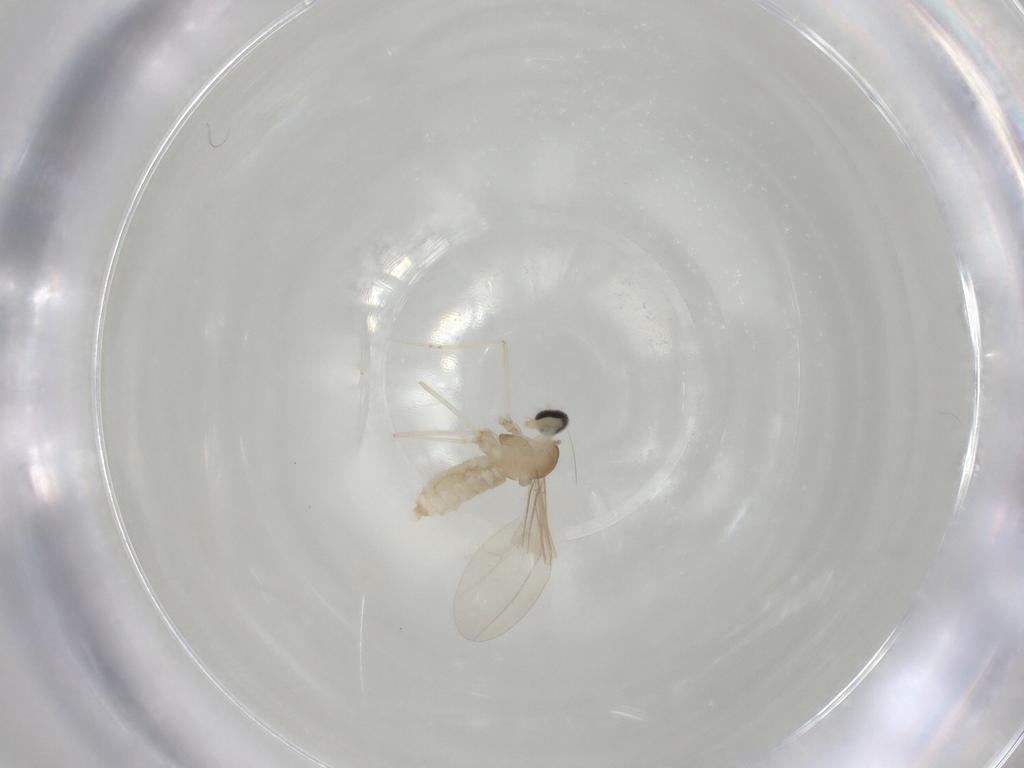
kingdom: Animalia
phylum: Arthropoda
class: Insecta
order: Diptera
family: Cecidomyiidae
